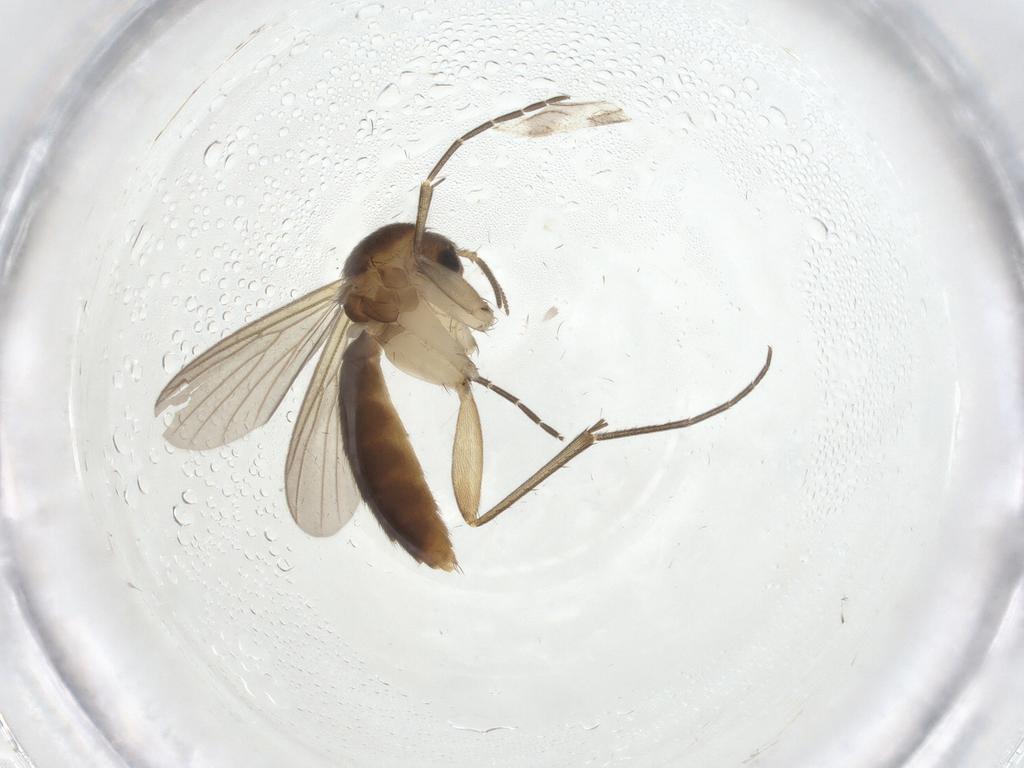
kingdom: Animalia
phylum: Arthropoda
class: Insecta
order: Diptera
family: Mycetophilidae
